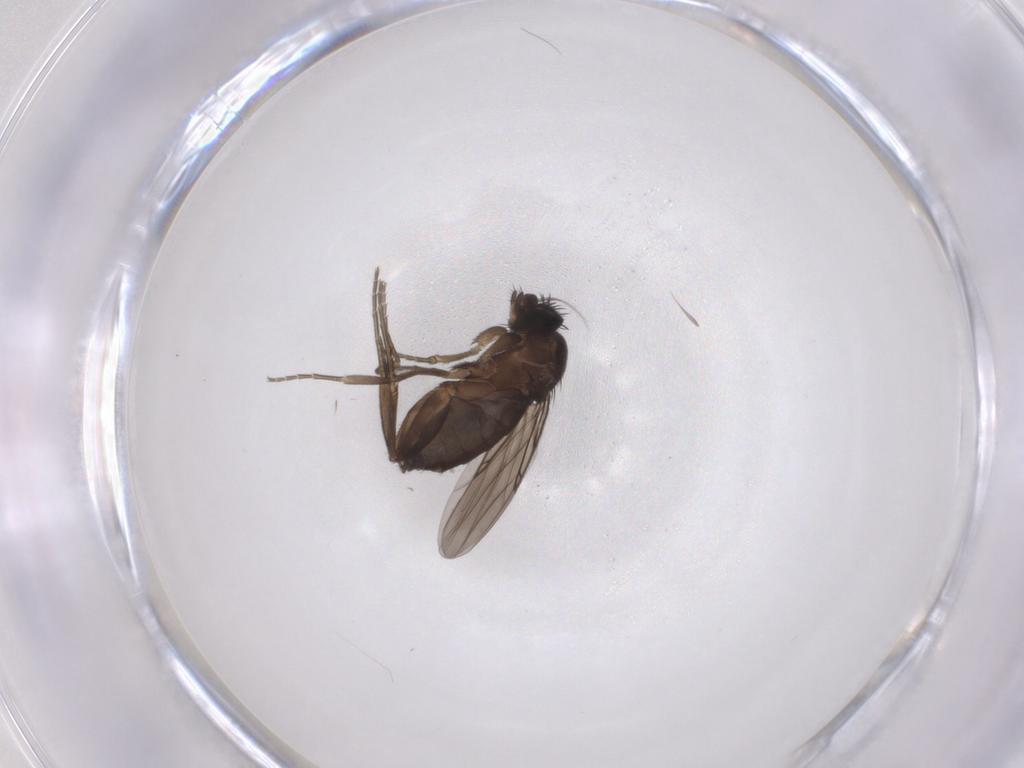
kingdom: Animalia
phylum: Arthropoda
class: Insecta
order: Diptera
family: Phoridae
